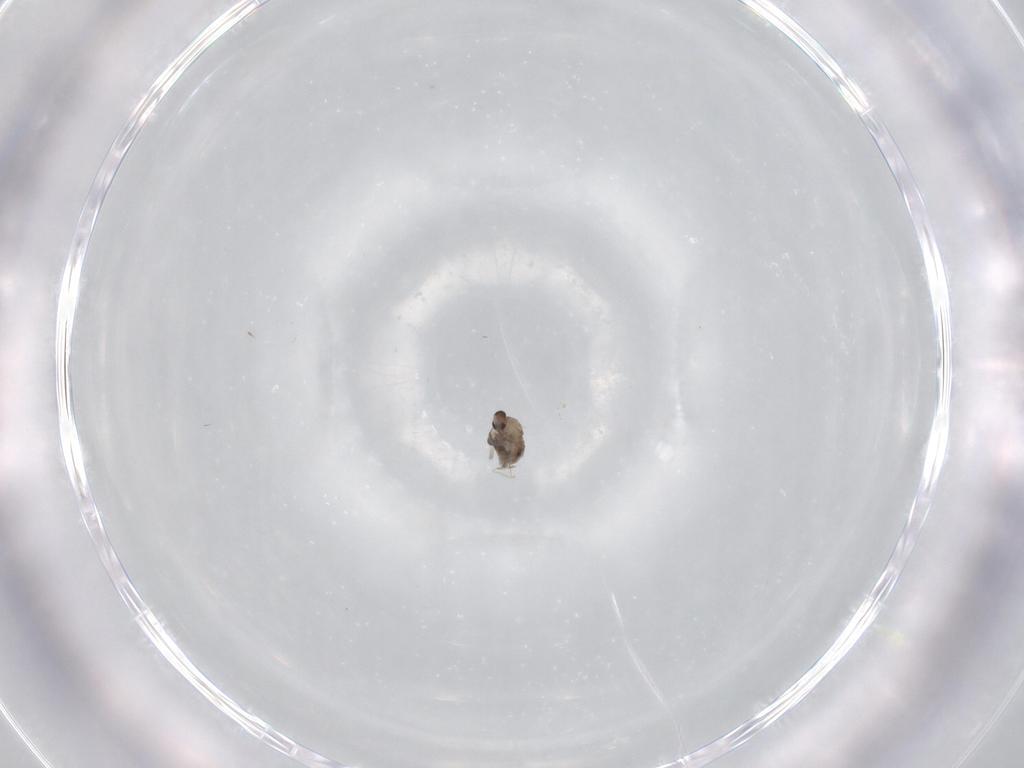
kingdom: Animalia
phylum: Arthropoda
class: Insecta
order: Diptera
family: Cecidomyiidae
